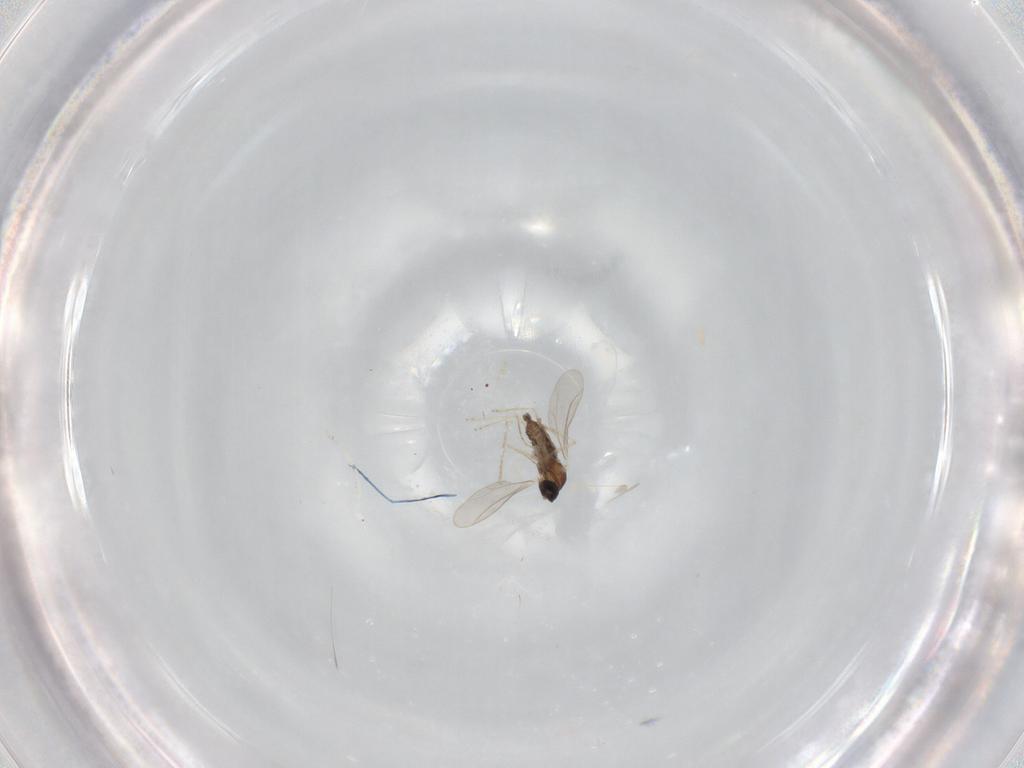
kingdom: Animalia
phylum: Arthropoda
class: Insecta
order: Diptera
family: Cecidomyiidae
